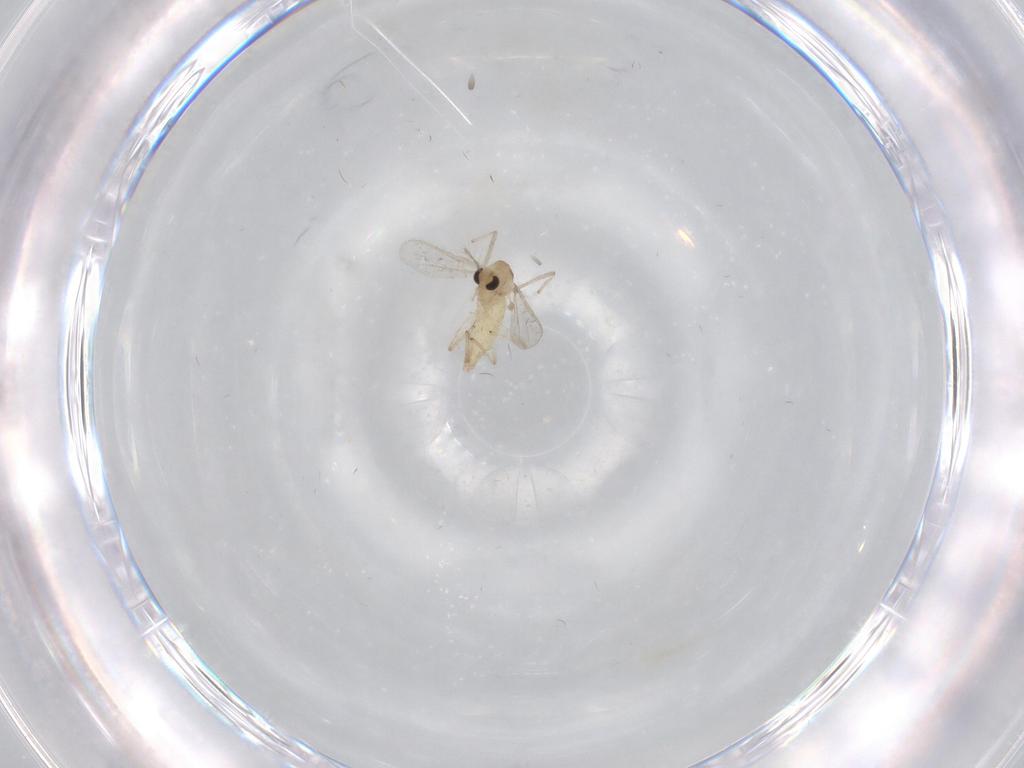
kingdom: Animalia
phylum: Arthropoda
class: Insecta
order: Diptera
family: Chironomidae
